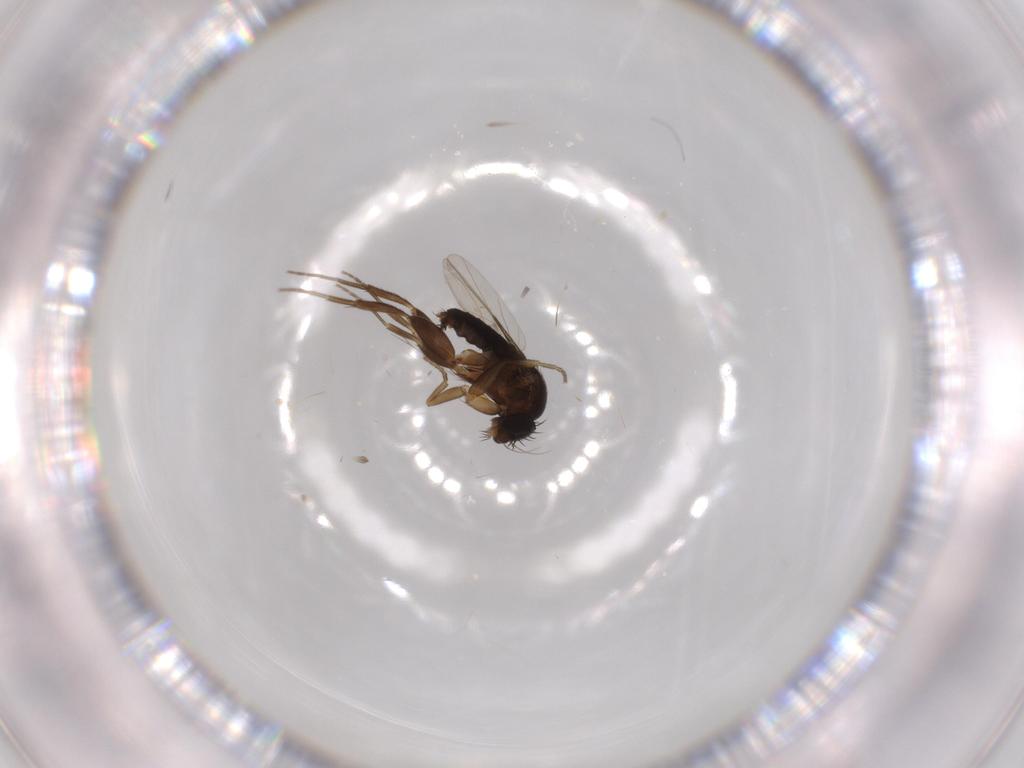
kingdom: Animalia
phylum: Arthropoda
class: Insecta
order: Diptera
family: Phoridae
